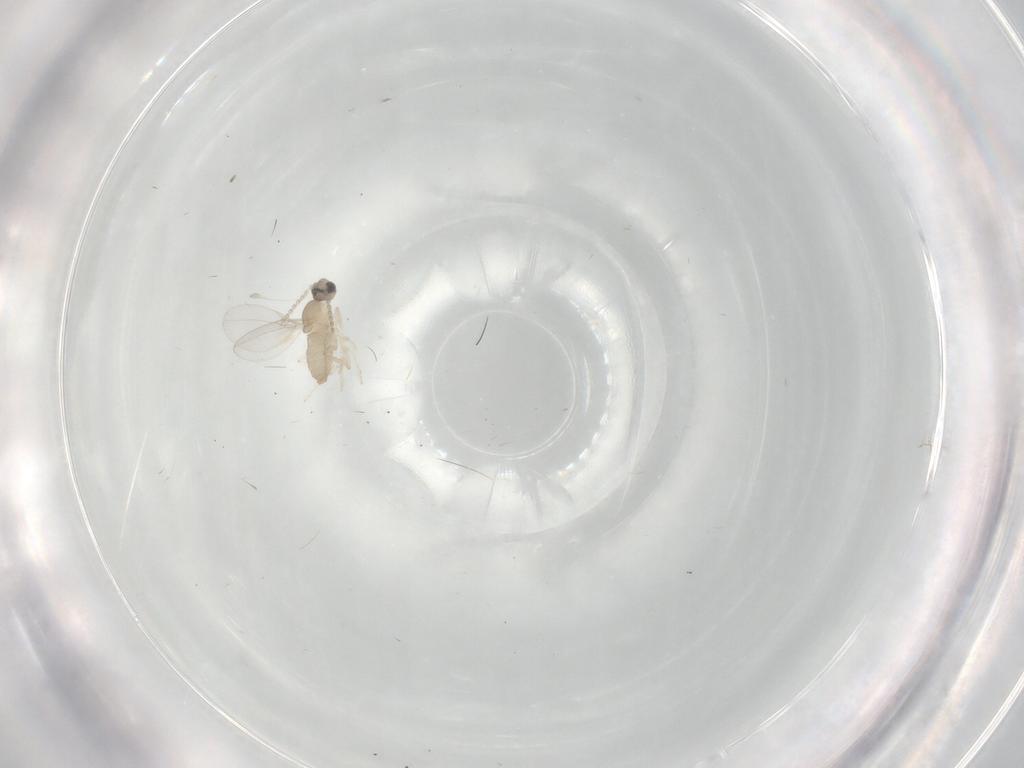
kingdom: Animalia
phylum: Arthropoda
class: Insecta
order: Diptera
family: Cecidomyiidae
